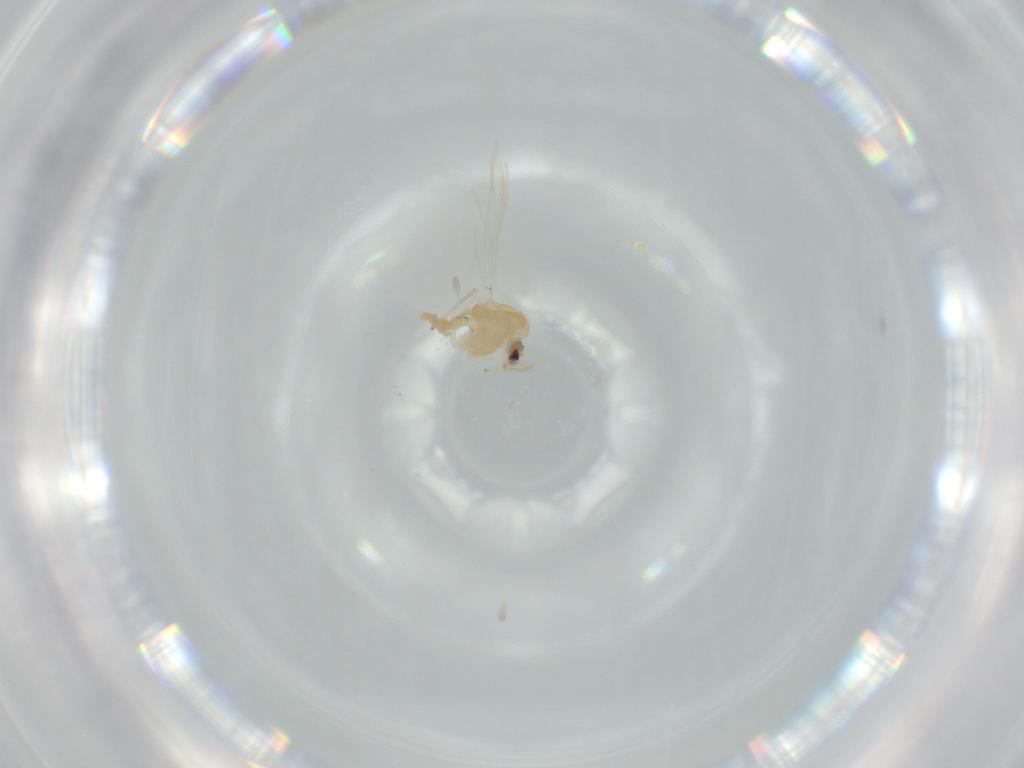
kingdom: Animalia
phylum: Arthropoda
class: Insecta
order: Diptera
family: Chironomidae
